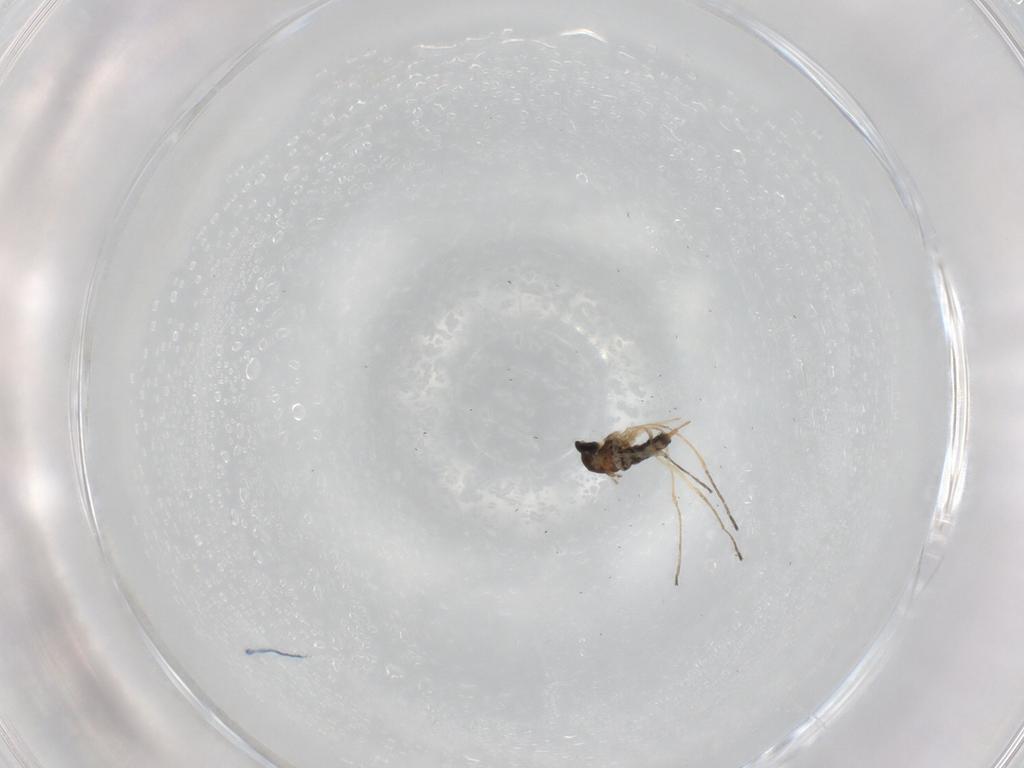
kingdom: Animalia
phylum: Arthropoda
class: Insecta
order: Diptera
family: Cecidomyiidae
